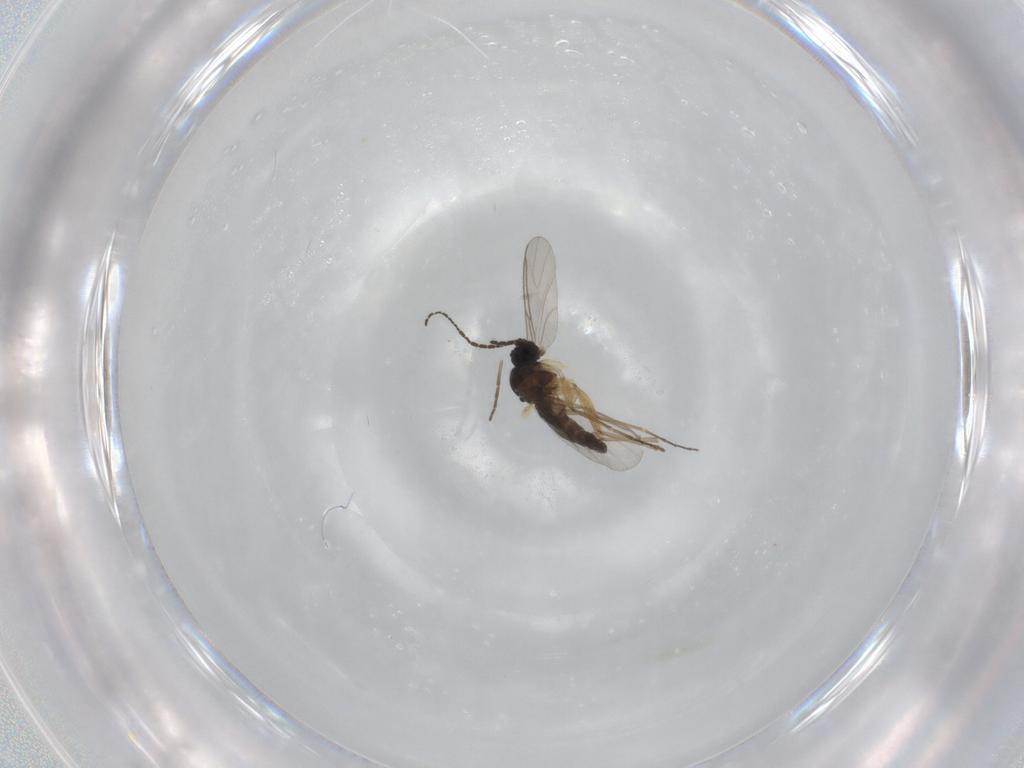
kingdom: Animalia
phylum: Arthropoda
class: Insecta
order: Diptera
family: Sciaridae
